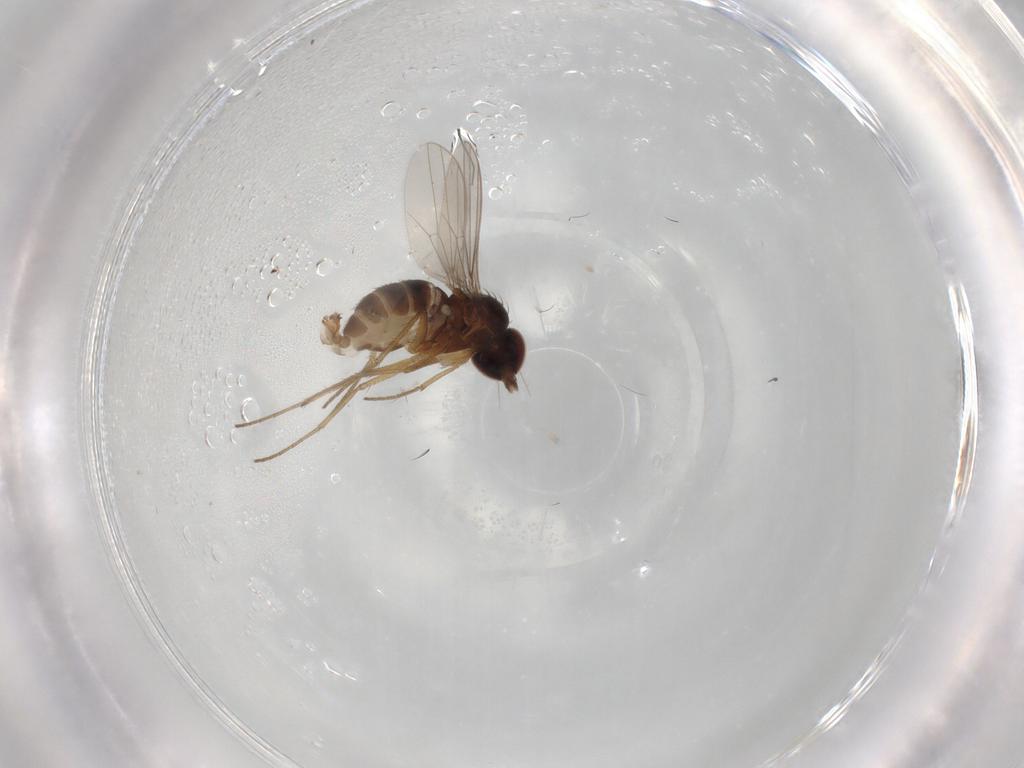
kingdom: Animalia
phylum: Arthropoda
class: Insecta
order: Diptera
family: Dolichopodidae
